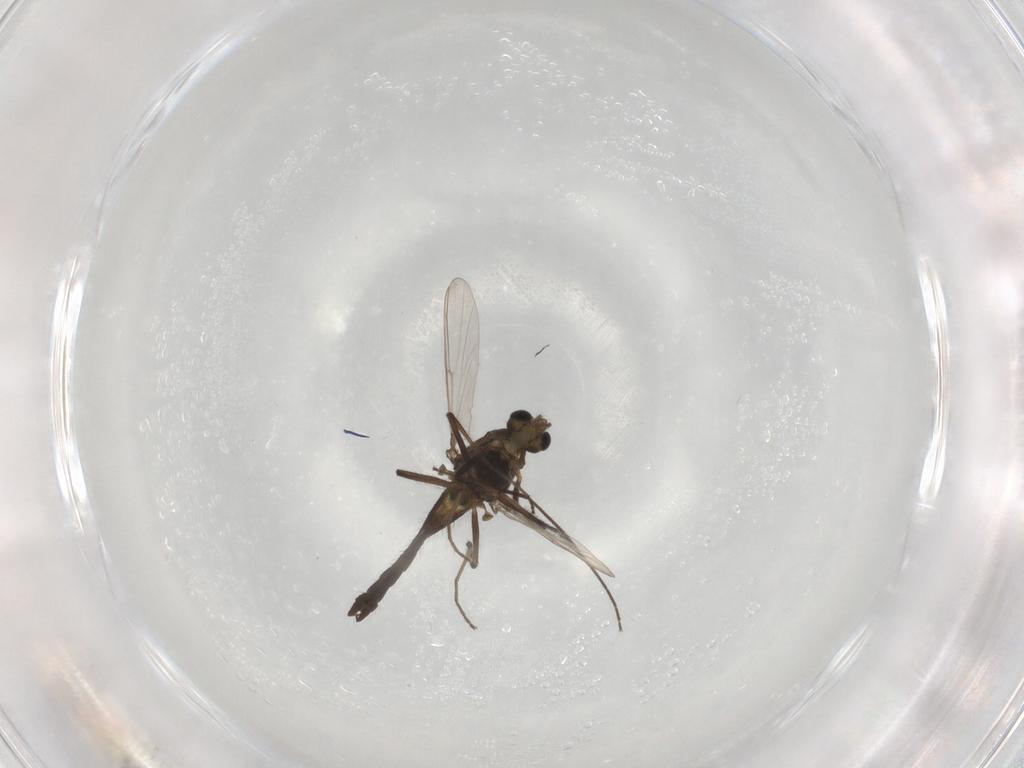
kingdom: Animalia
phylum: Arthropoda
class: Insecta
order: Diptera
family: Chironomidae
